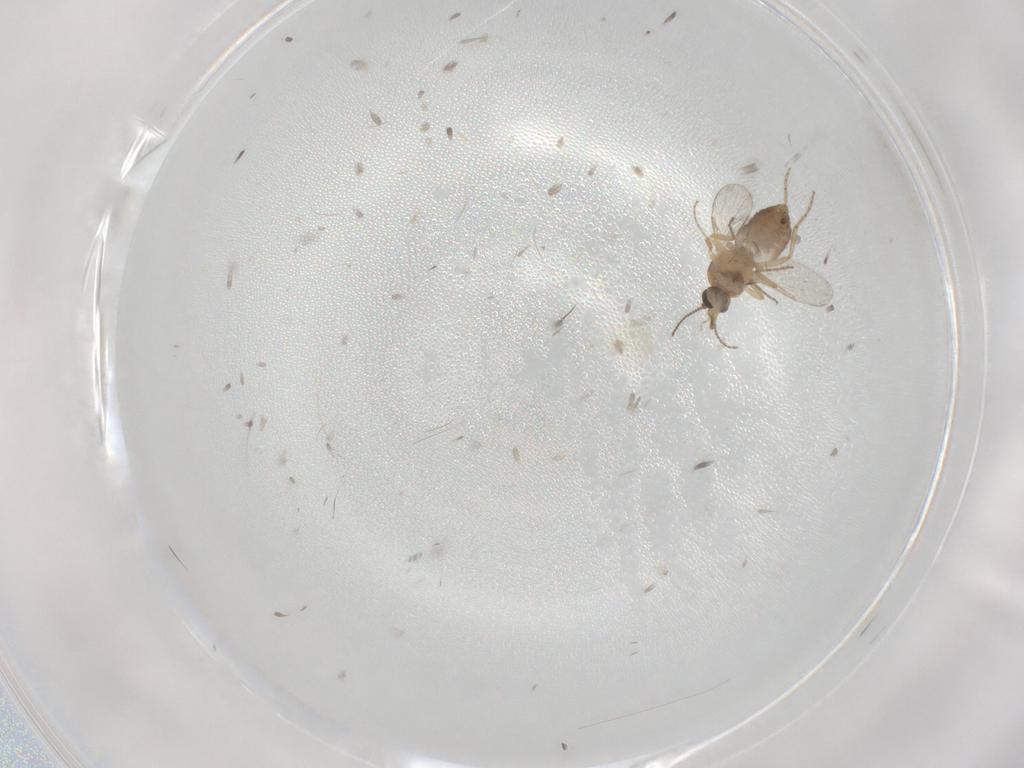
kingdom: Animalia
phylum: Arthropoda
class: Insecta
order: Diptera
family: Ceratopogonidae
